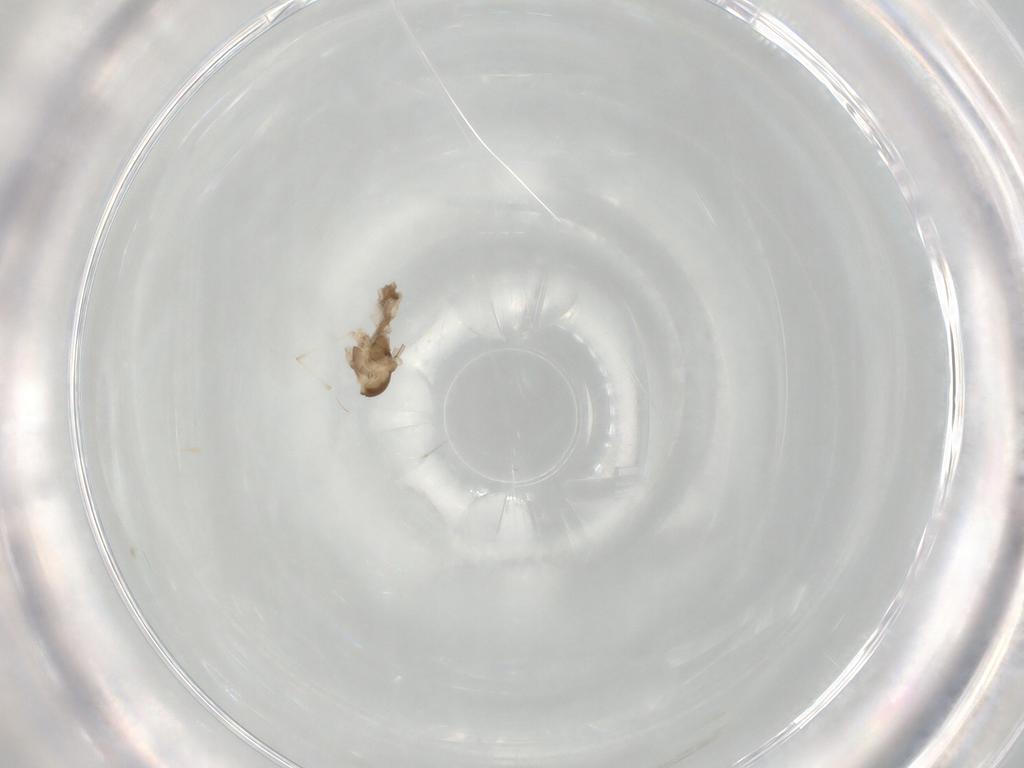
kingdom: Animalia
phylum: Arthropoda
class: Insecta
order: Diptera
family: Cecidomyiidae
